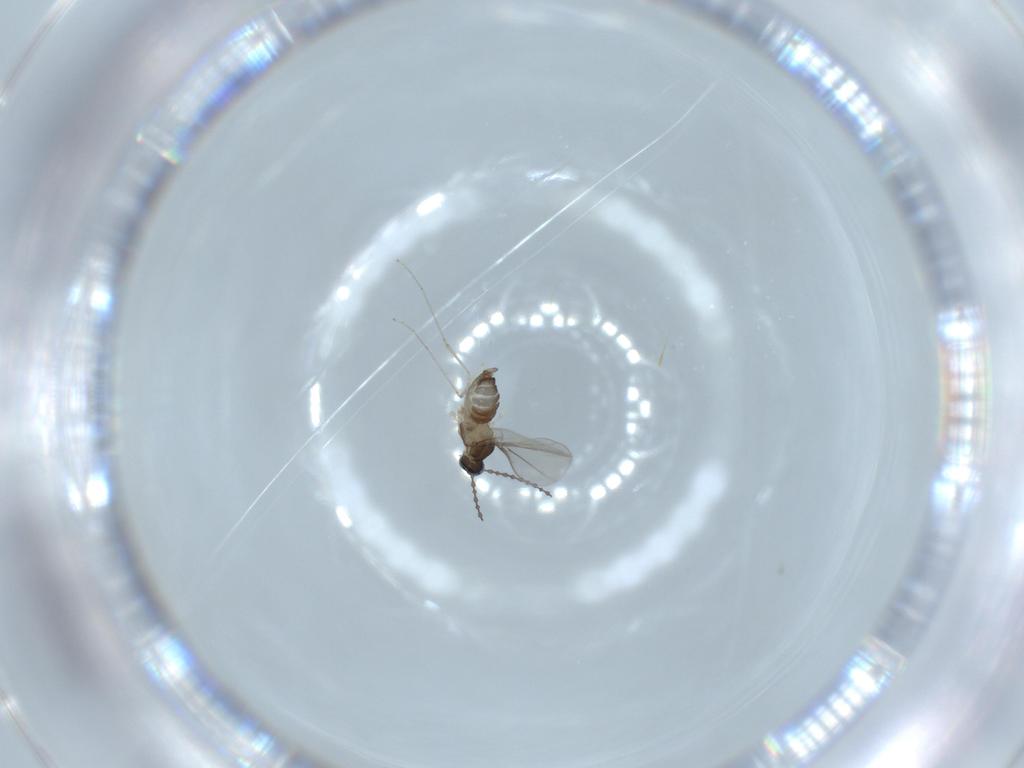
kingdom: Animalia
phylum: Arthropoda
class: Insecta
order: Diptera
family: Cecidomyiidae
